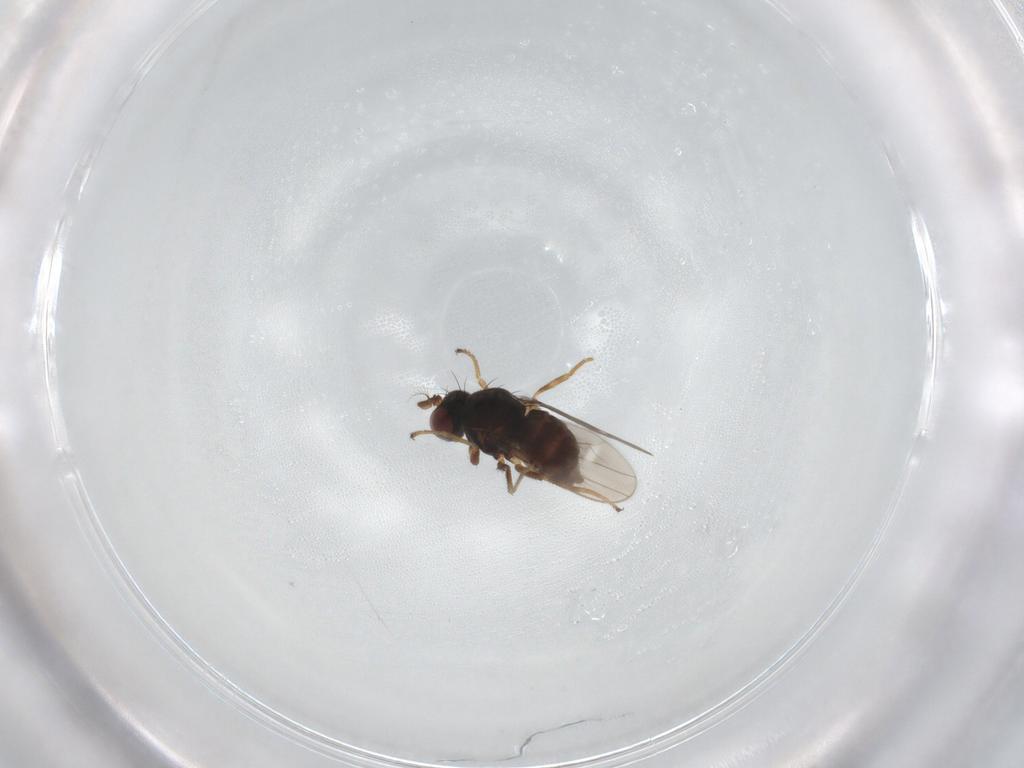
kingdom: Animalia
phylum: Arthropoda
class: Insecta
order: Diptera
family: Ephydridae
